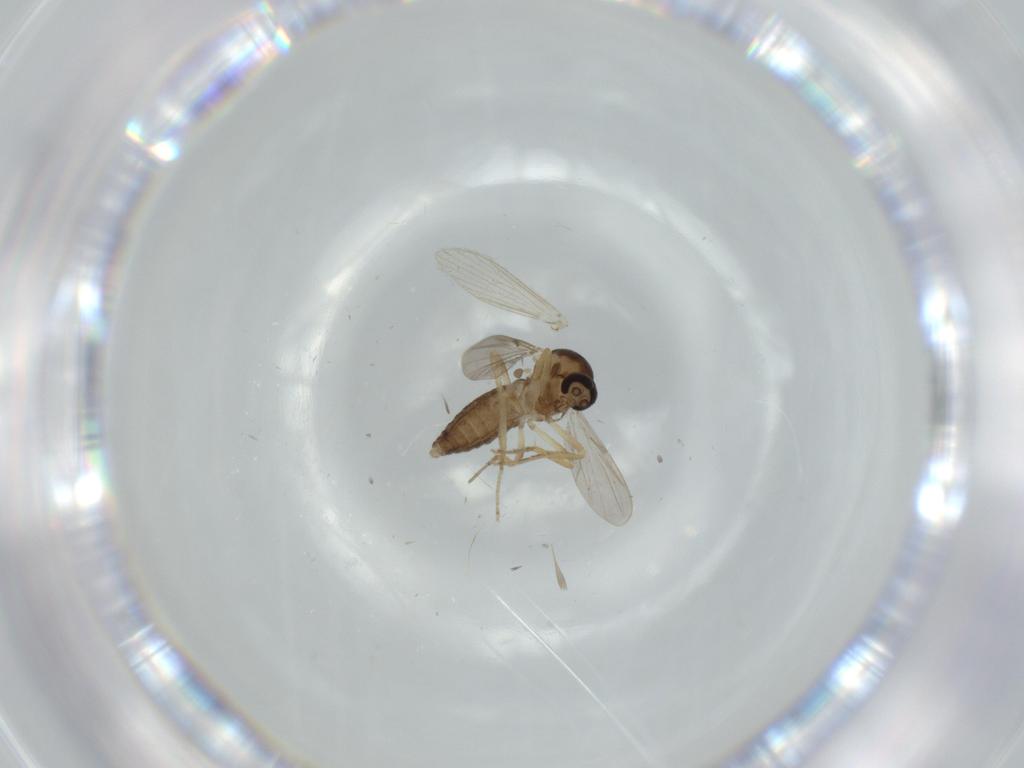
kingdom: Animalia
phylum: Arthropoda
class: Insecta
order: Diptera
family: Ceratopogonidae
